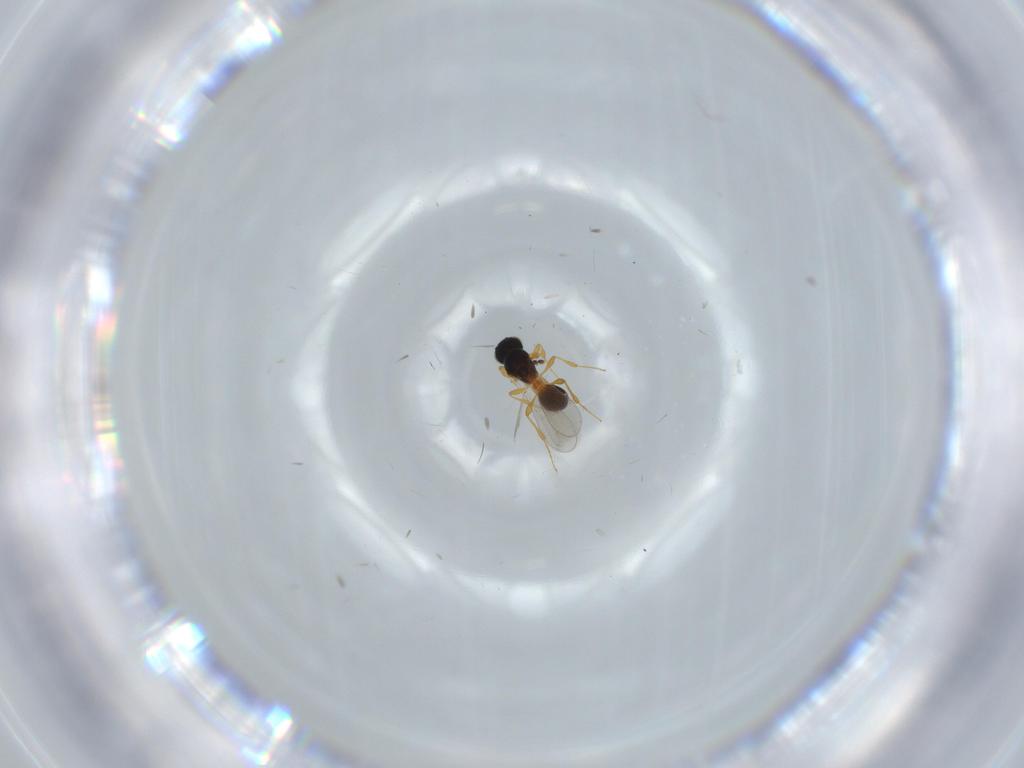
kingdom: Animalia
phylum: Arthropoda
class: Insecta
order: Hymenoptera
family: Platygastridae
